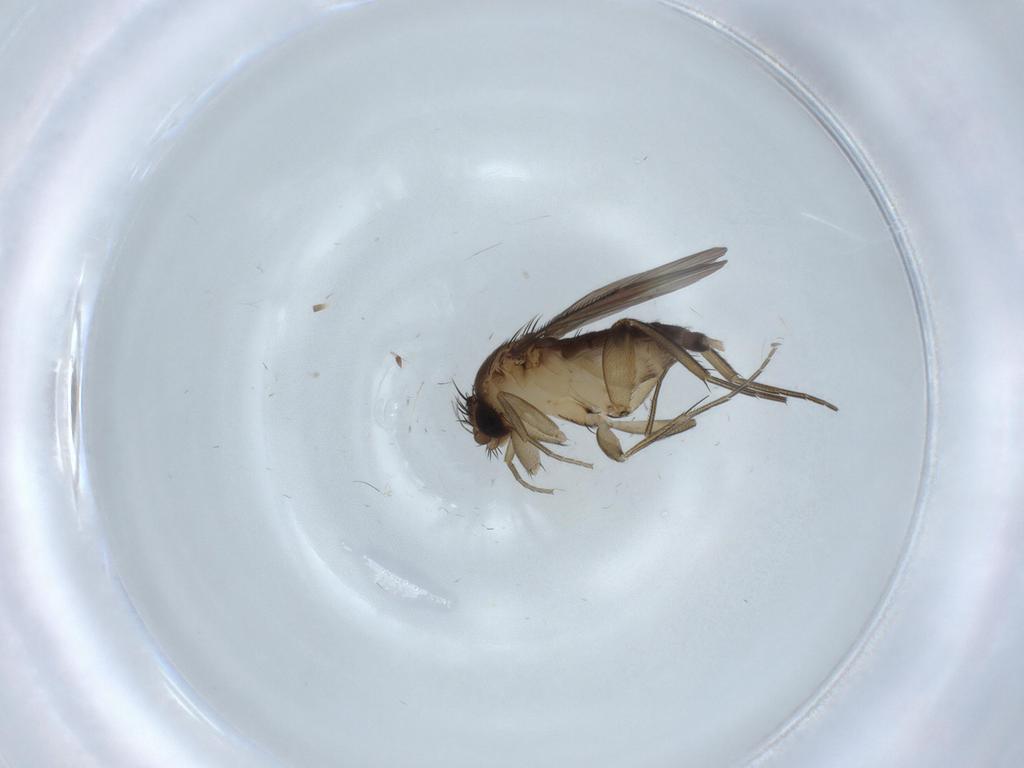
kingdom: Animalia
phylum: Arthropoda
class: Insecta
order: Diptera
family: Phoridae
